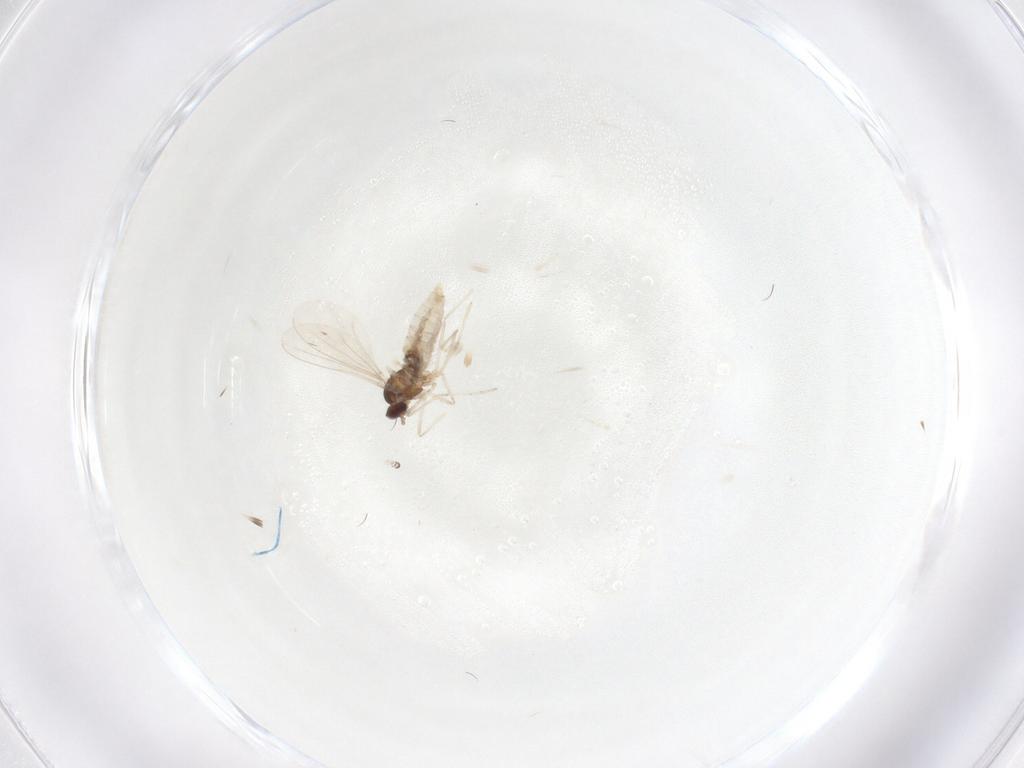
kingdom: Animalia
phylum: Arthropoda
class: Insecta
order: Diptera
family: Cecidomyiidae
